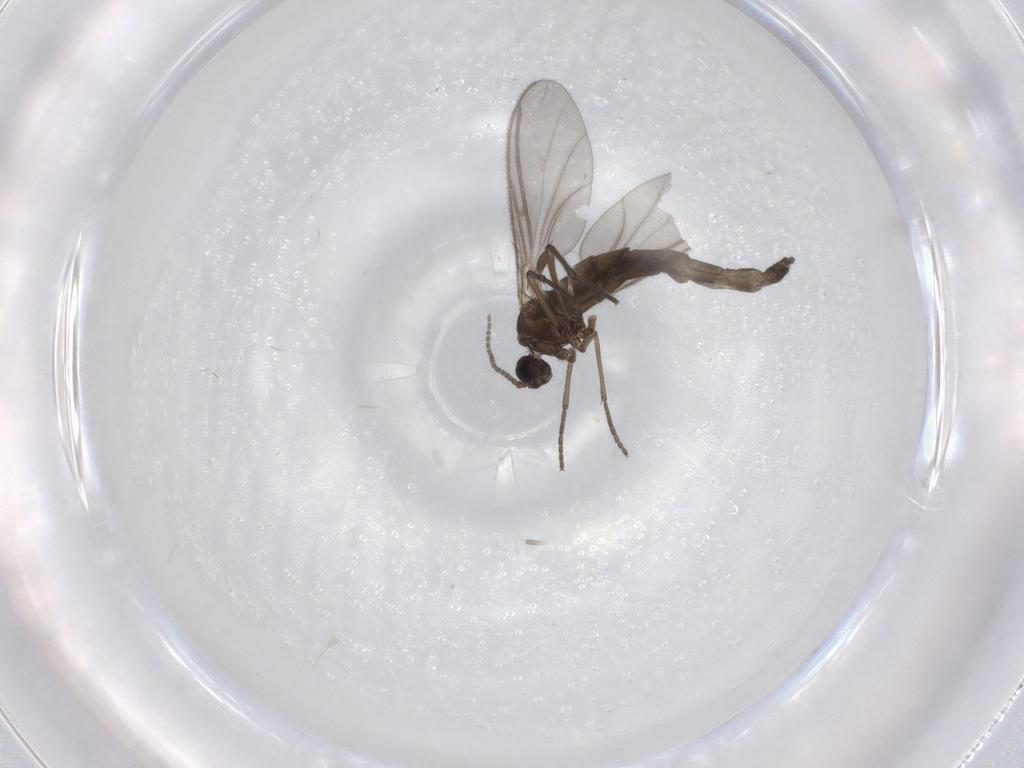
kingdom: Animalia
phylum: Arthropoda
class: Insecta
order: Diptera
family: Sciaridae
